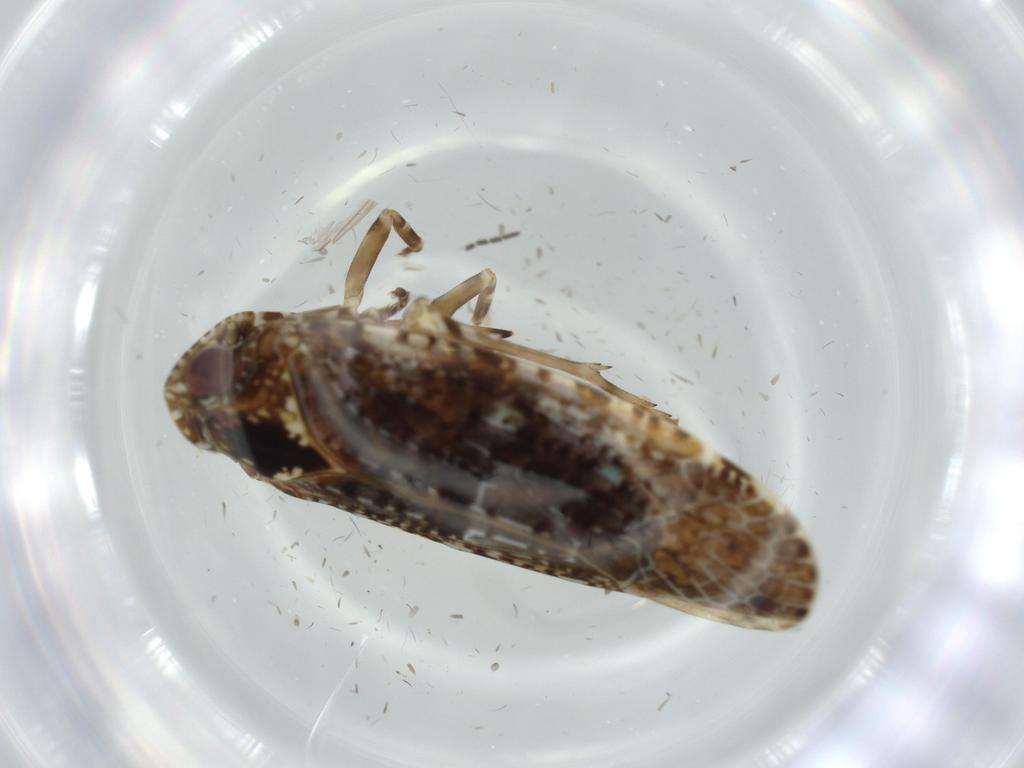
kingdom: Animalia
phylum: Arthropoda
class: Insecta
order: Hemiptera
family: Achilidae
